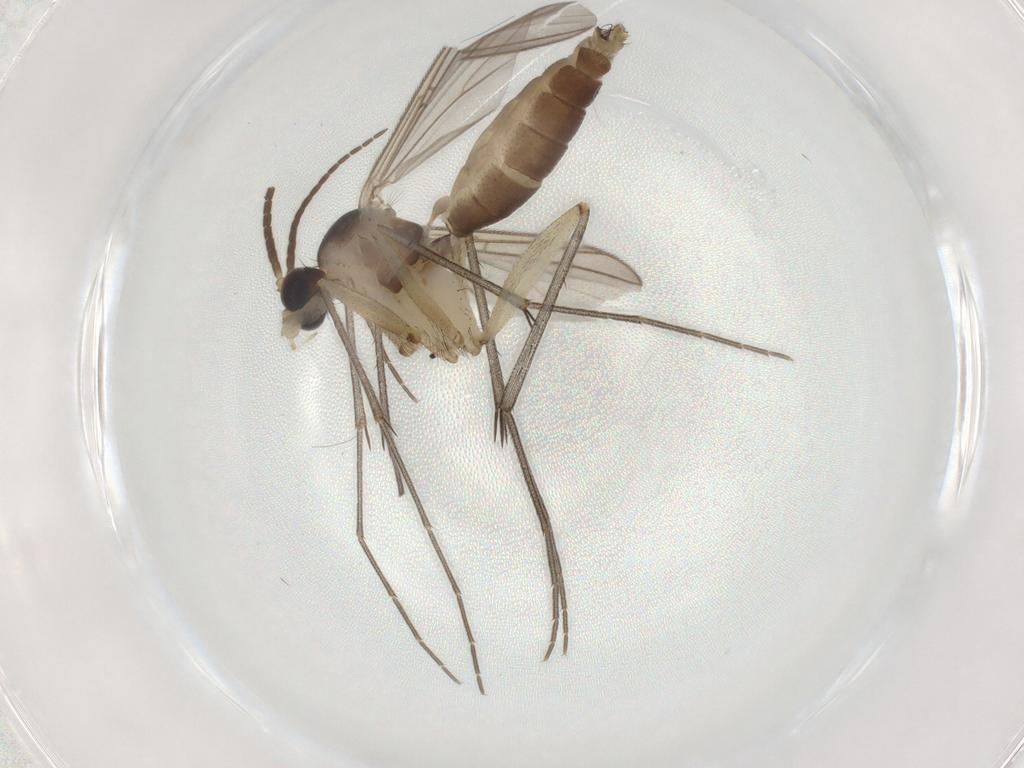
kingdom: Animalia
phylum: Arthropoda
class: Insecta
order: Diptera
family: Mycetophilidae
